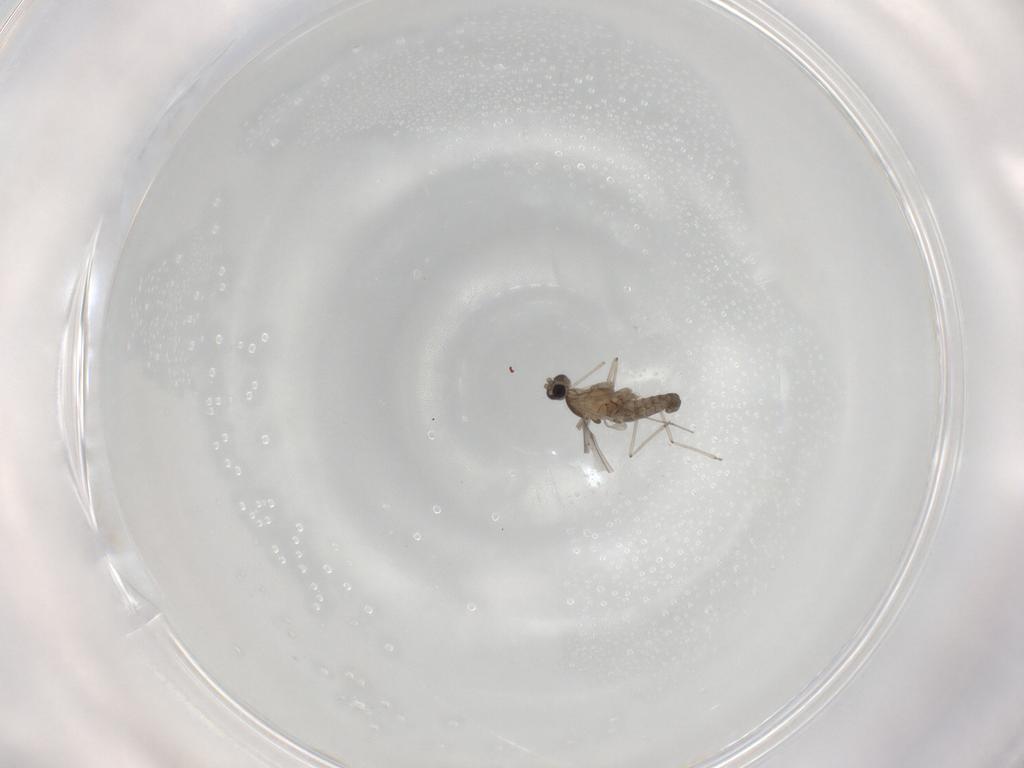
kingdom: Animalia
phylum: Arthropoda
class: Insecta
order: Diptera
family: Cecidomyiidae
